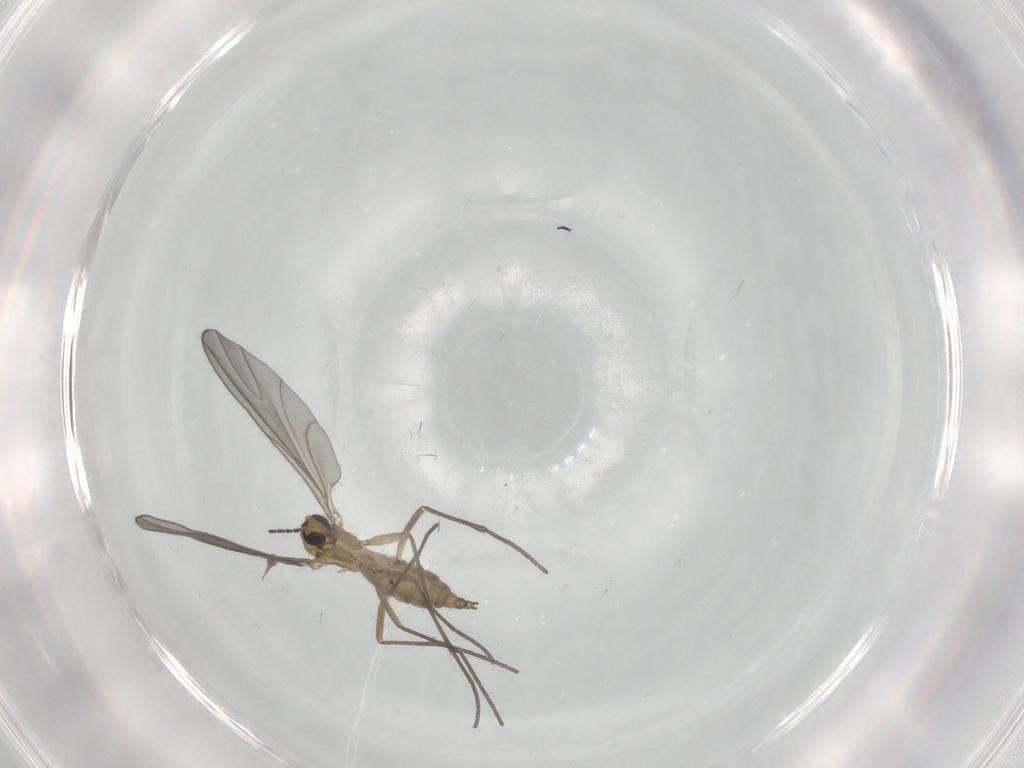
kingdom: Animalia
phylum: Arthropoda
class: Insecta
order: Diptera
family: Sciaridae
